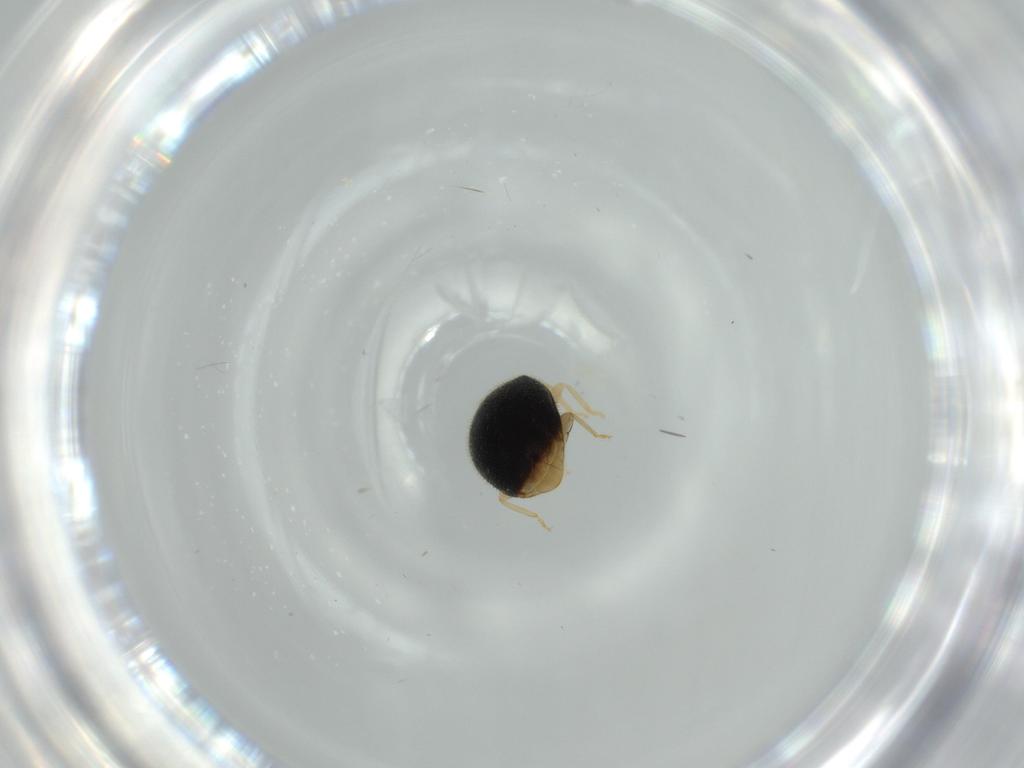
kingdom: Animalia
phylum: Arthropoda
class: Insecta
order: Coleoptera
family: Coccinellidae
